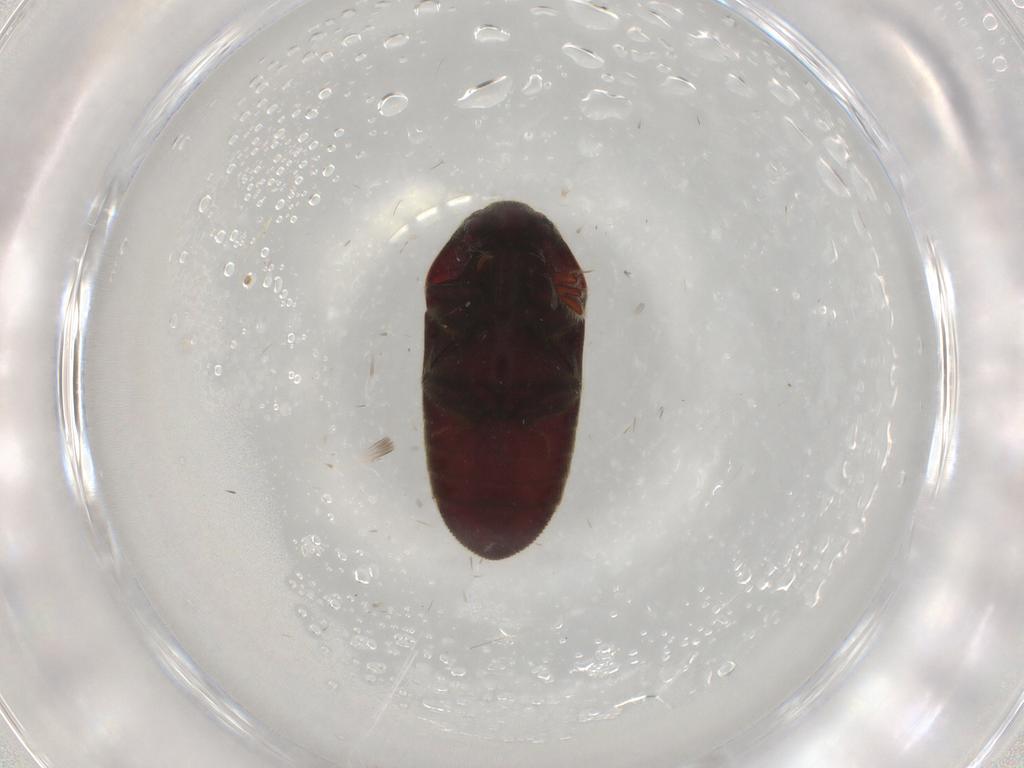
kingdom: Animalia
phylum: Arthropoda
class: Insecta
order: Coleoptera
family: Throscidae
